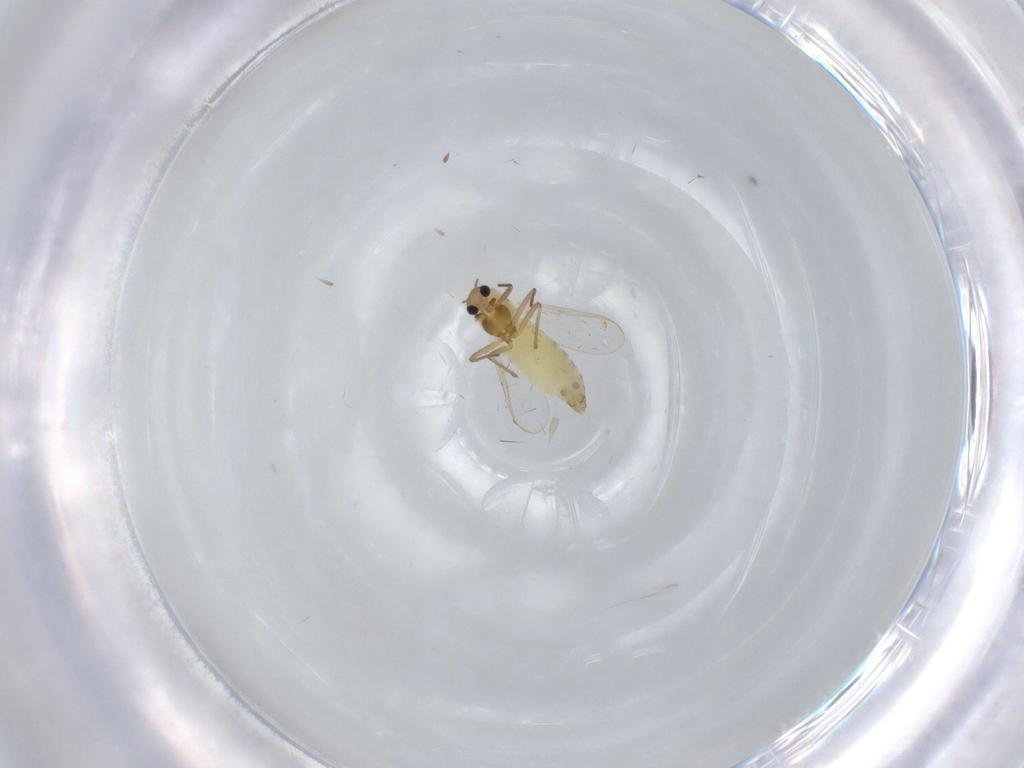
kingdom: Animalia
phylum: Arthropoda
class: Insecta
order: Diptera
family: Chironomidae
